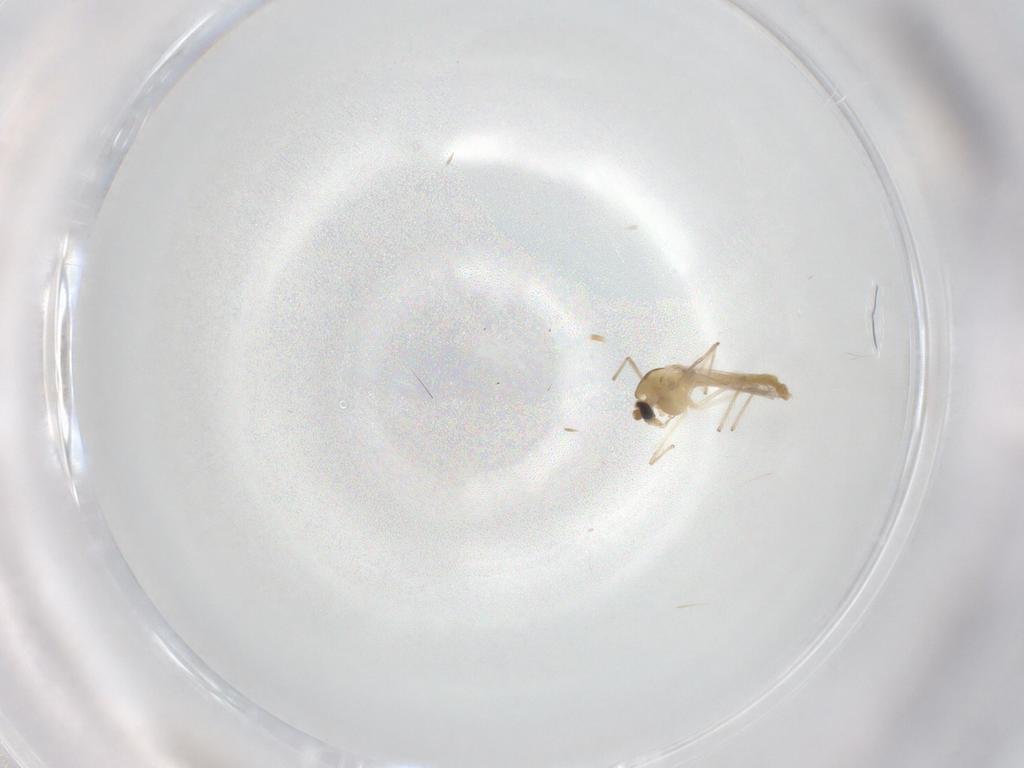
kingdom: Animalia
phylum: Arthropoda
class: Insecta
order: Diptera
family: Chironomidae
